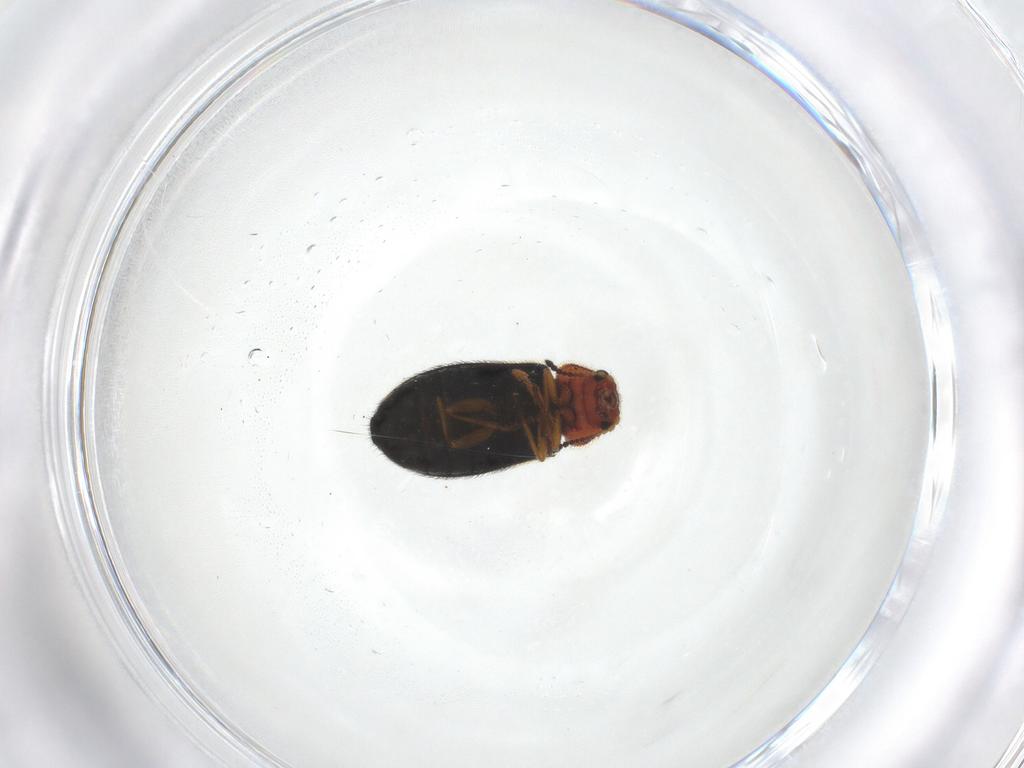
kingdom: Animalia
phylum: Arthropoda
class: Insecta
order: Coleoptera
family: Melyridae
